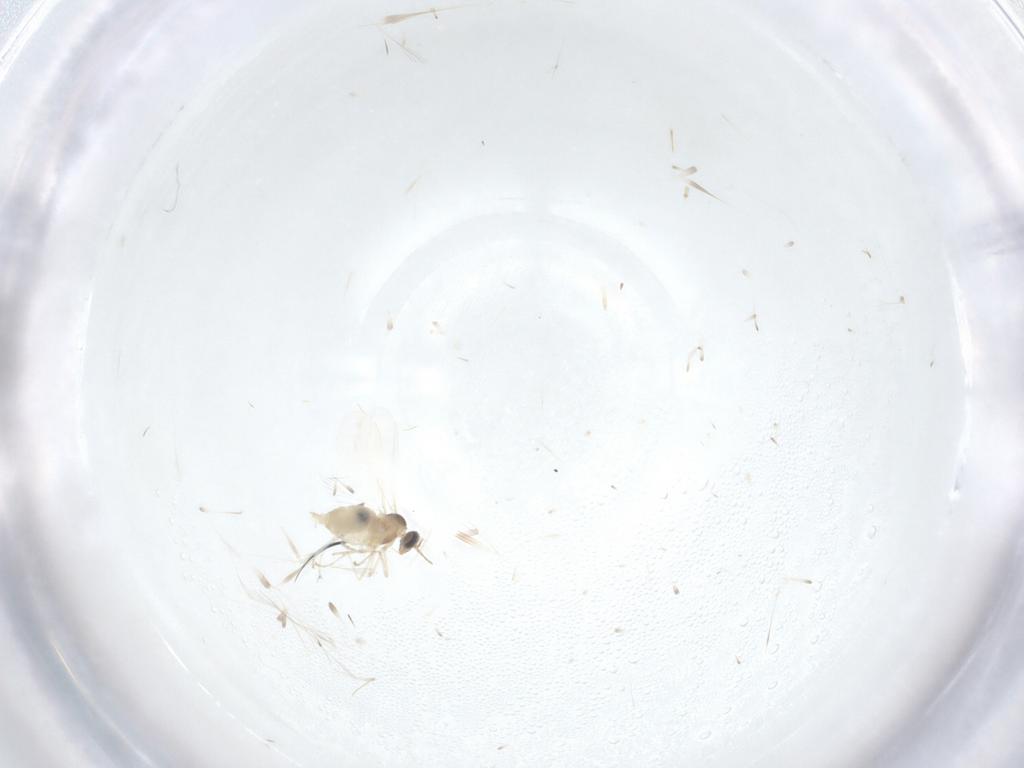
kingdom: Animalia
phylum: Arthropoda
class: Insecta
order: Diptera
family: Cecidomyiidae
